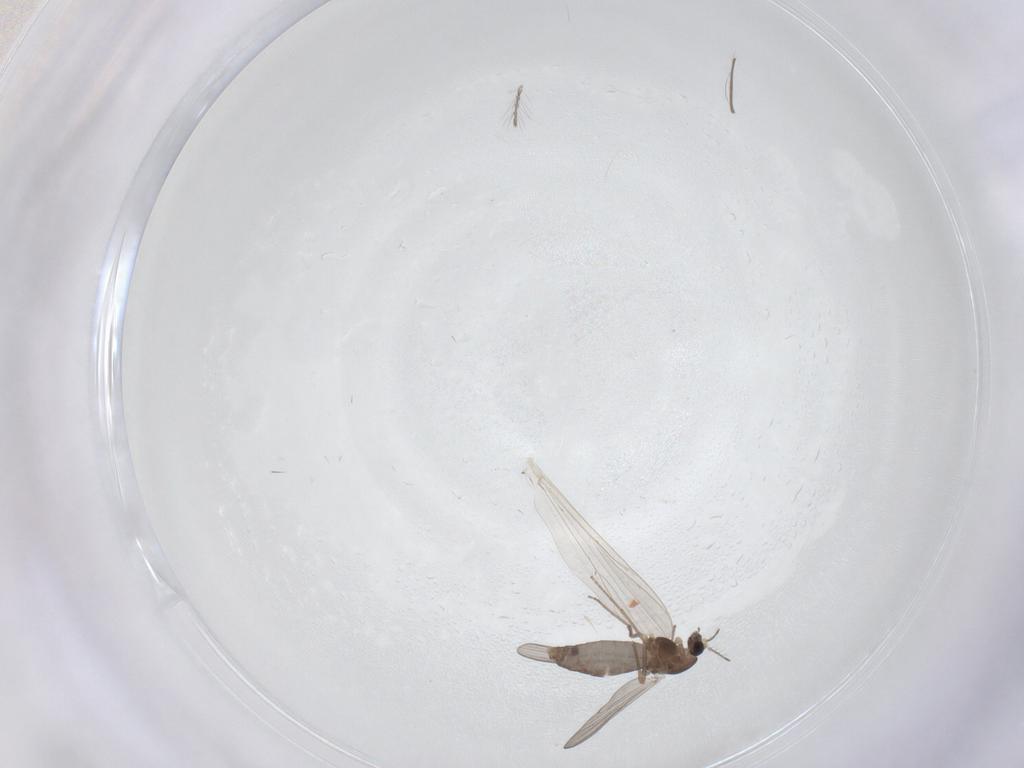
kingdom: Animalia
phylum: Arthropoda
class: Insecta
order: Diptera
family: Chironomidae
